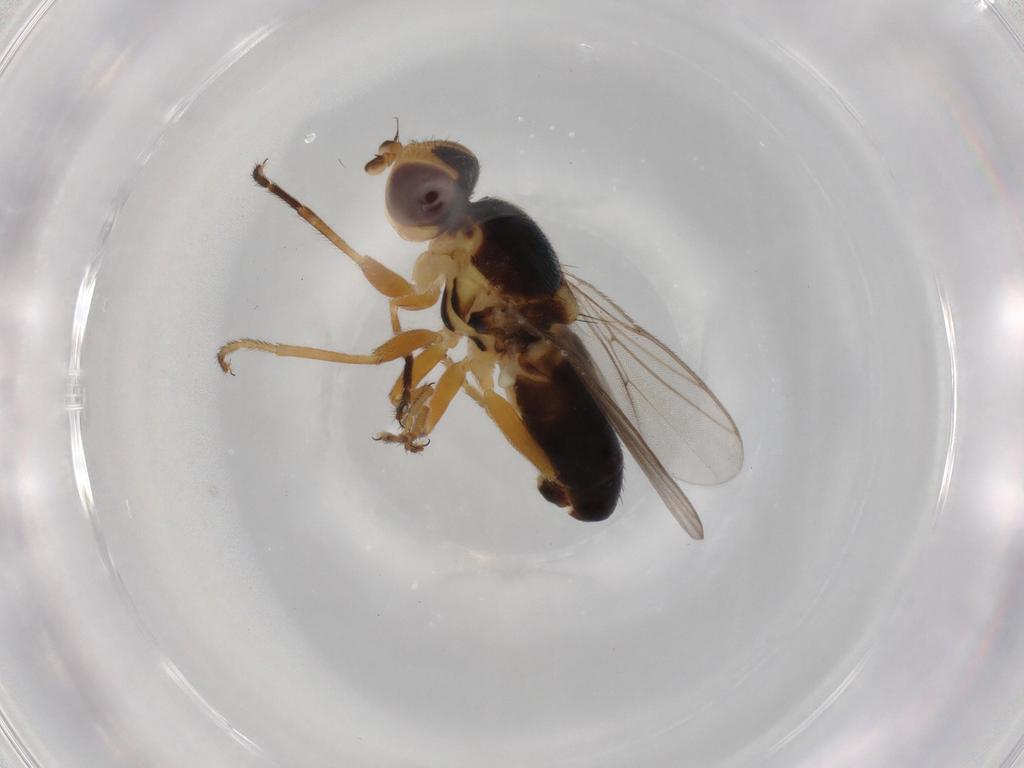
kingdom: Animalia
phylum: Arthropoda
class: Insecta
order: Diptera
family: Chloropidae
